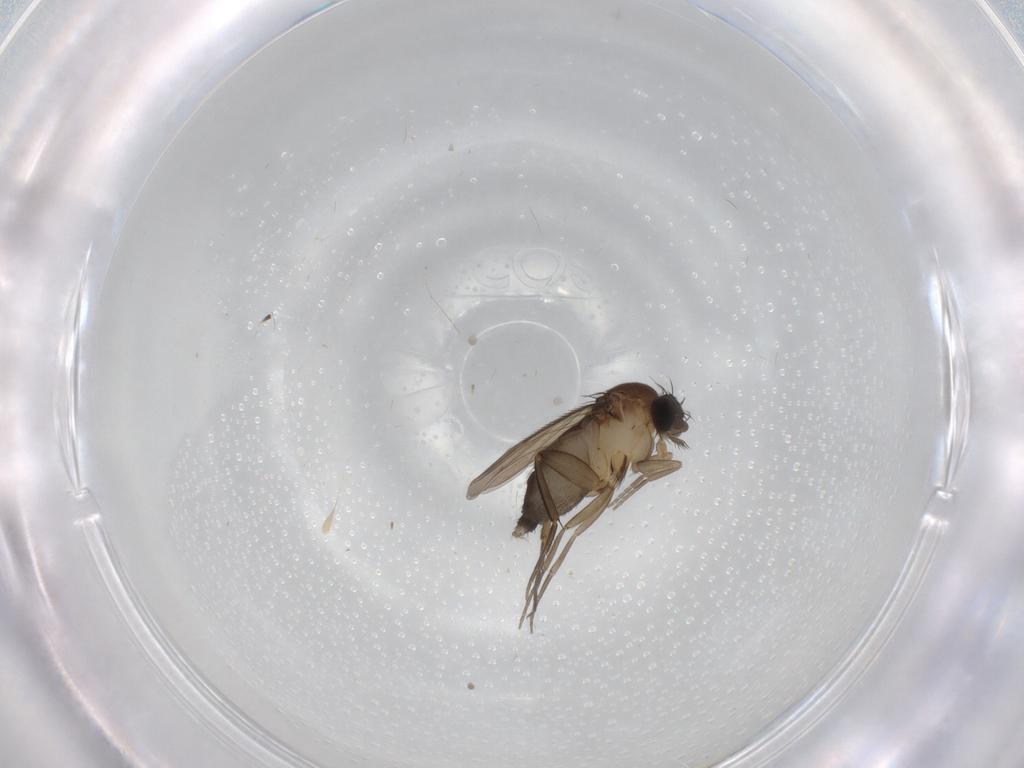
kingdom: Animalia
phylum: Arthropoda
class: Insecta
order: Diptera
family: Phoridae
